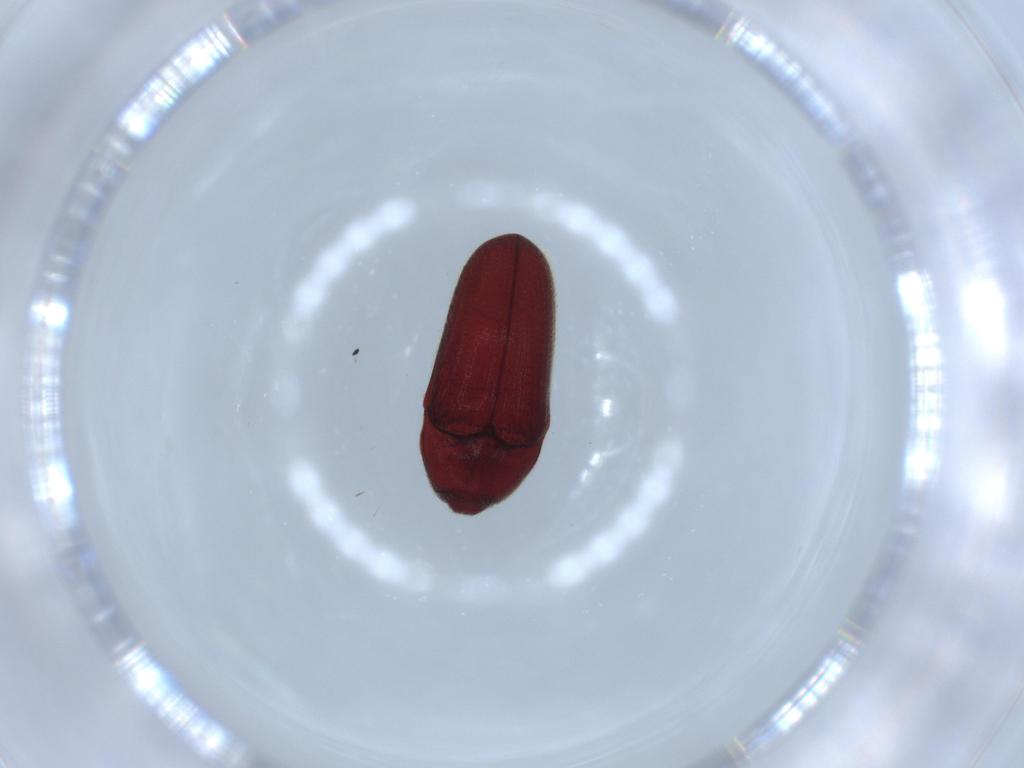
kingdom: Animalia
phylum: Arthropoda
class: Insecta
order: Coleoptera
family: Throscidae
